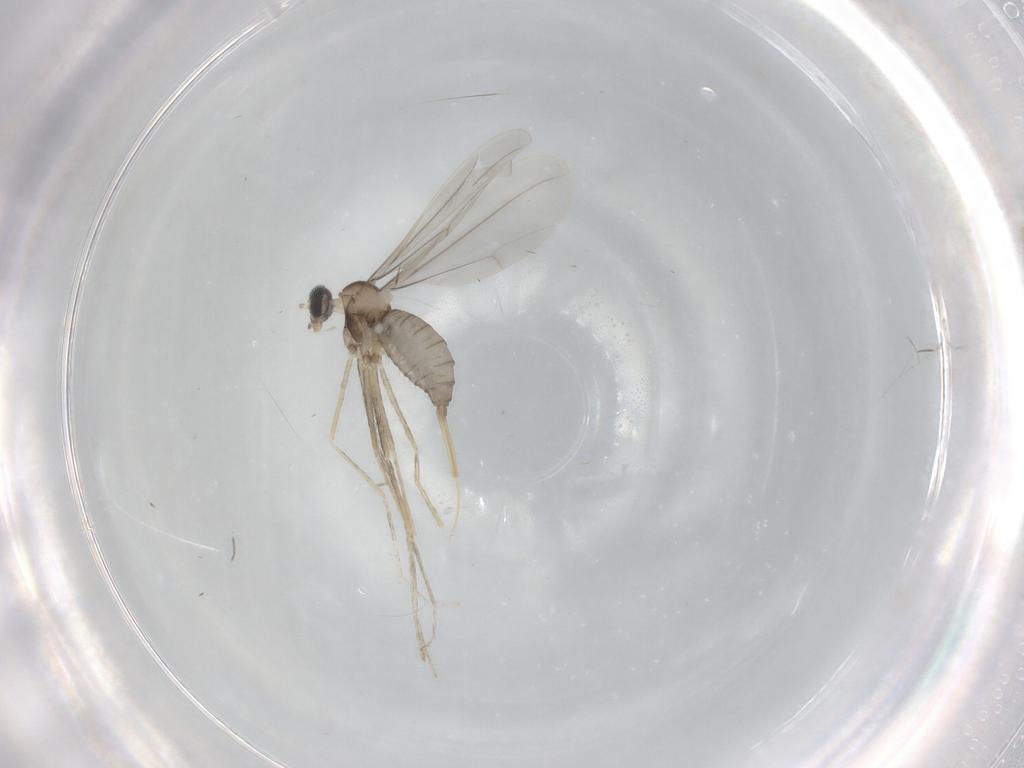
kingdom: Animalia
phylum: Arthropoda
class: Insecta
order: Diptera
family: Cecidomyiidae
